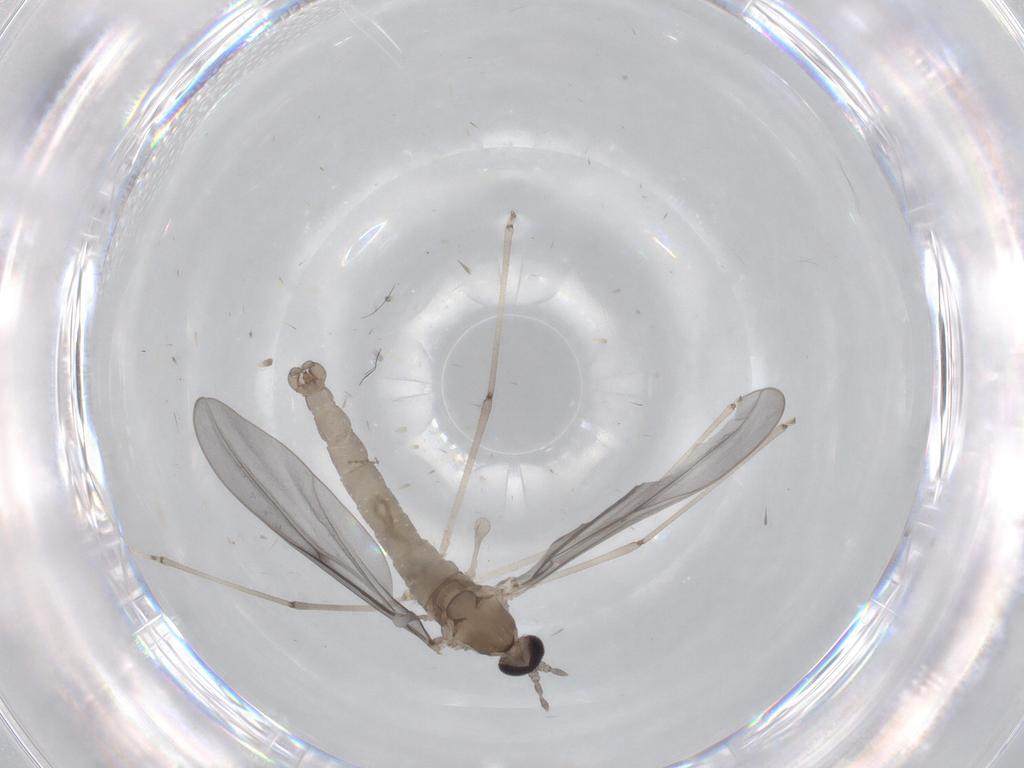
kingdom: Animalia
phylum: Arthropoda
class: Insecta
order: Diptera
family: Cecidomyiidae
